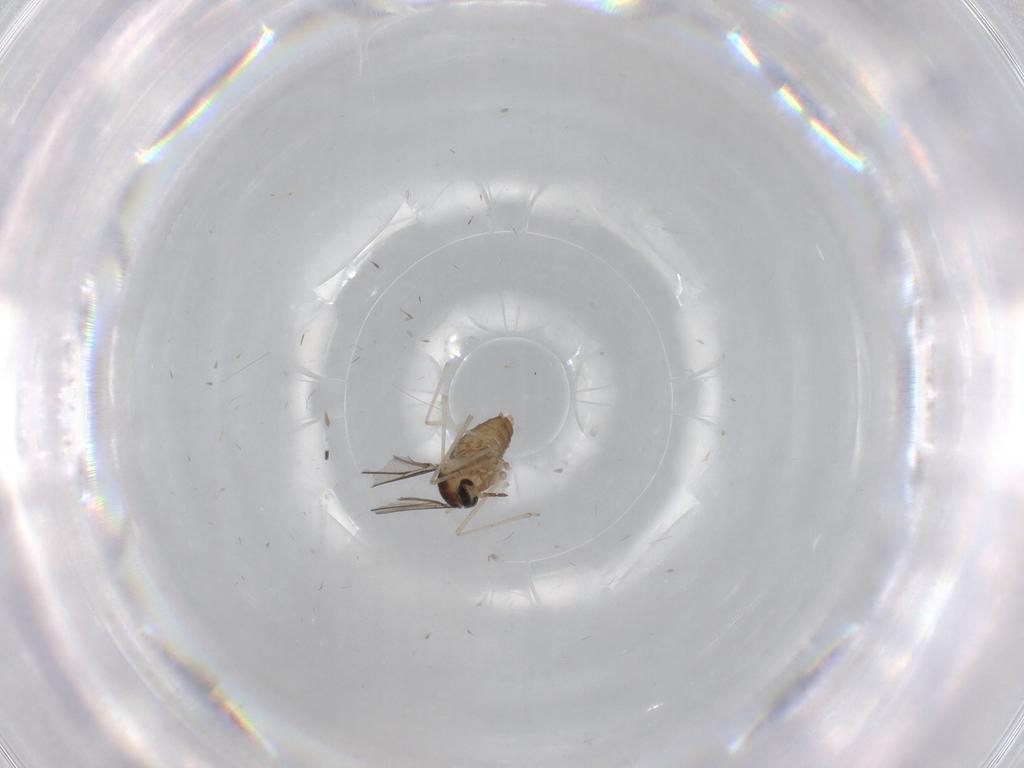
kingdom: Animalia
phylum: Arthropoda
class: Insecta
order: Diptera
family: Cecidomyiidae
